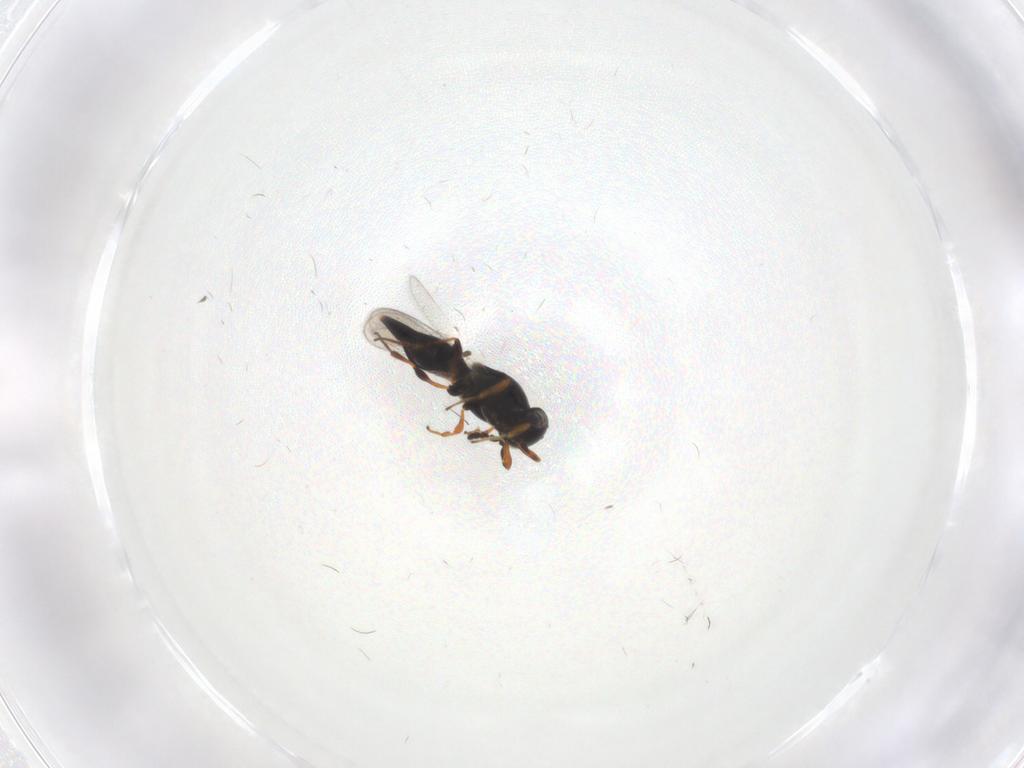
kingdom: Animalia
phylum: Arthropoda
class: Insecta
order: Hymenoptera
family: Platygastridae
